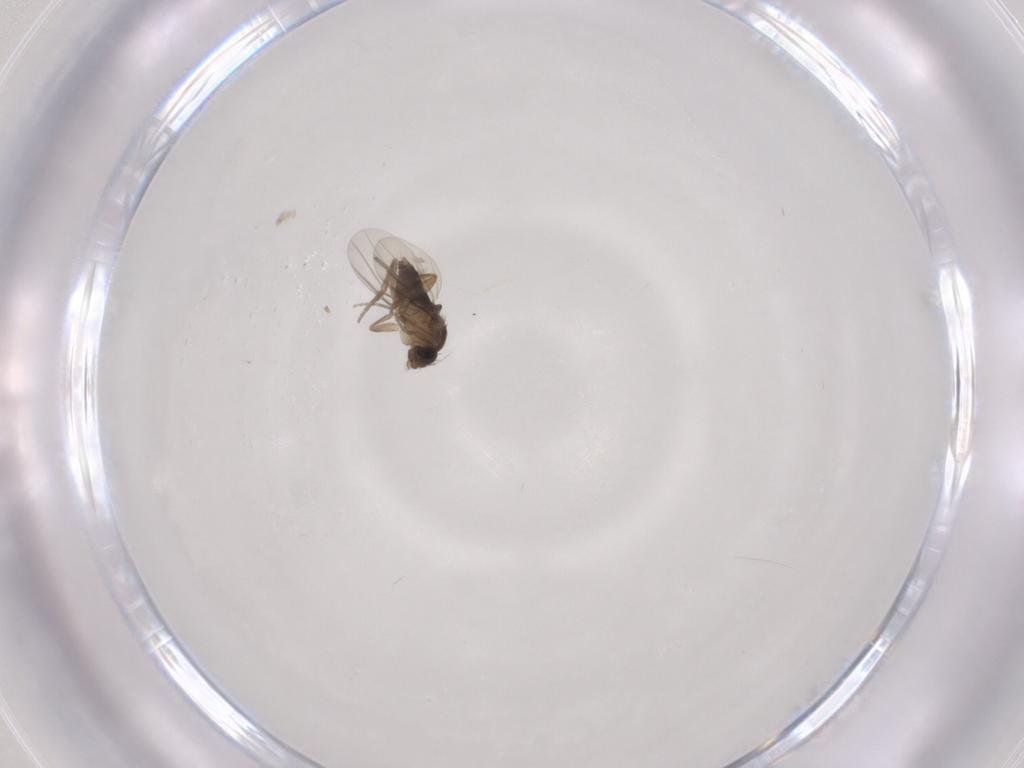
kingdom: Animalia
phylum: Arthropoda
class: Insecta
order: Diptera
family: Phoridae
